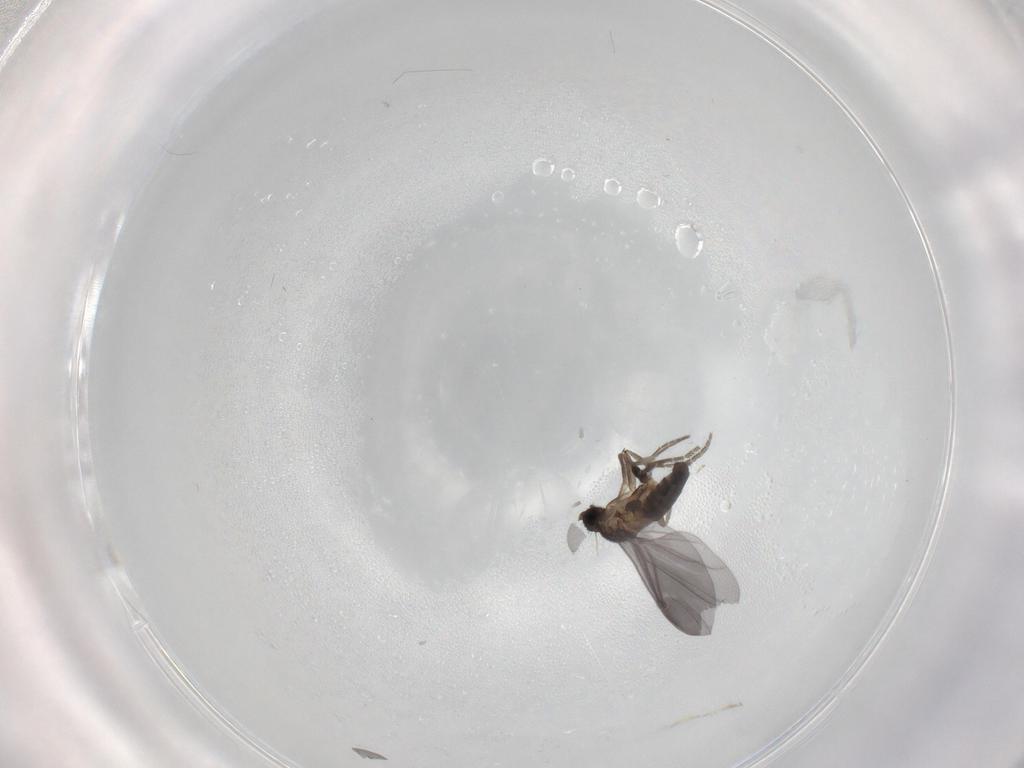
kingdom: Animalia
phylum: Arthropoda
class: Insecta
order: Diptera
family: Phoridae
